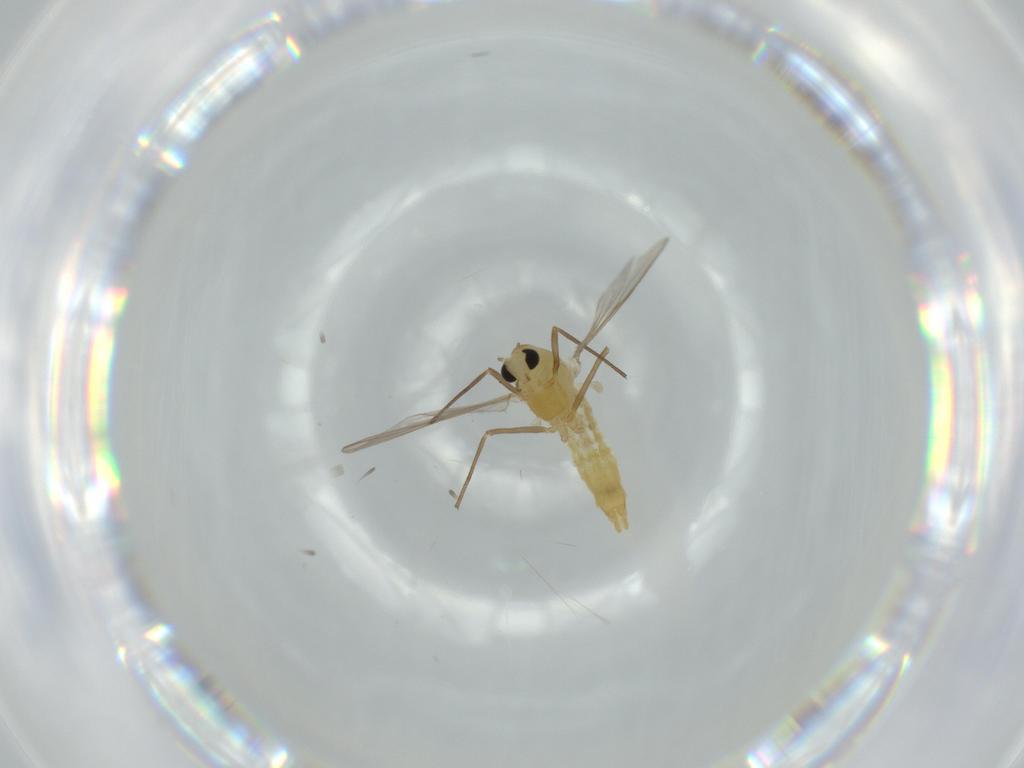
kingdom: Animalia
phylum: Arthropoda
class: Insecta
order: Diptera
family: Chironomidae
